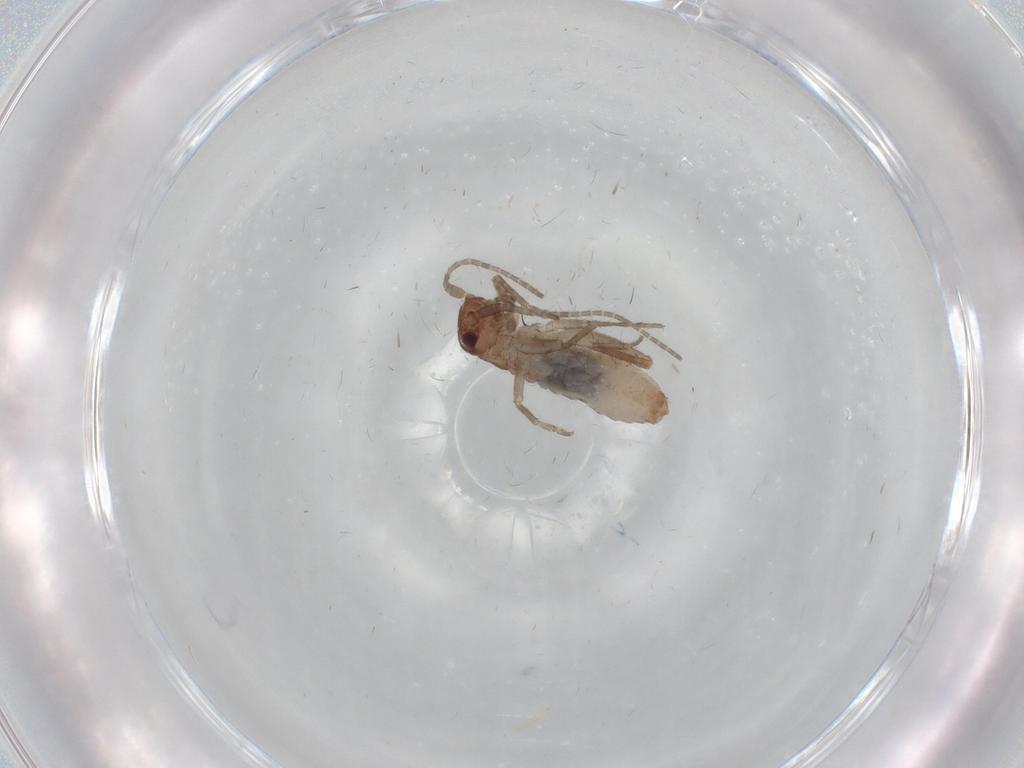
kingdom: Animalia
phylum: Arthropoda
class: Insecta
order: Orthoptera
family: Mogoplistidae
